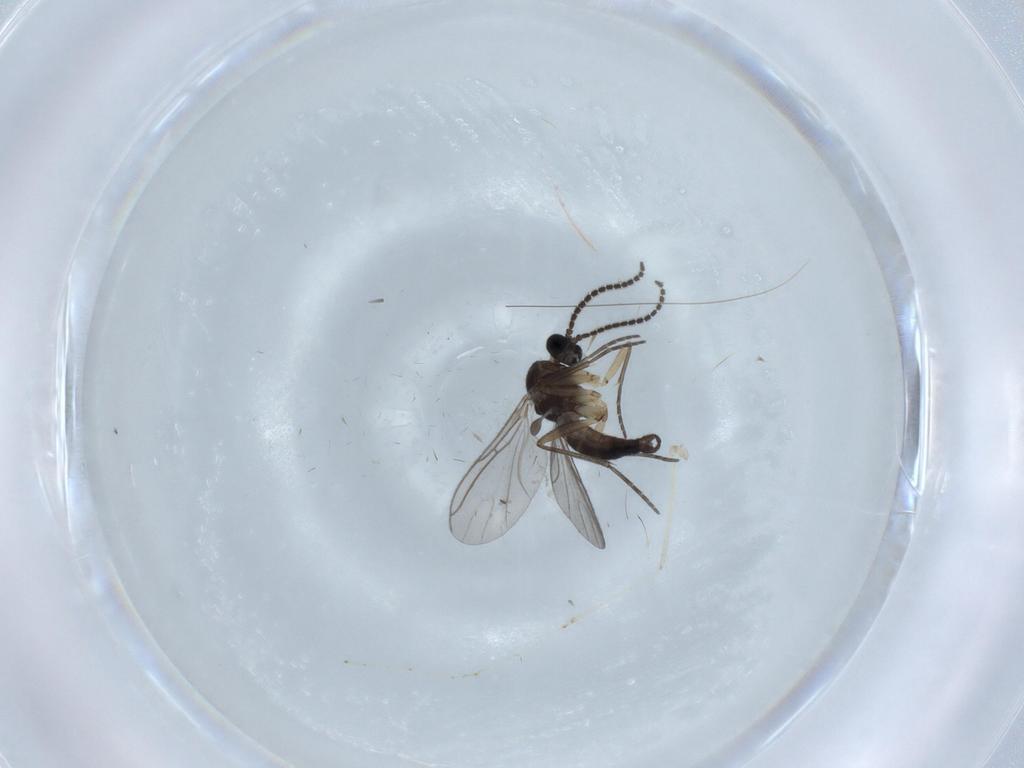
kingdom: Animalia
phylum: Arthropoda
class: Insecta
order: Diptera
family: Sciaridae
